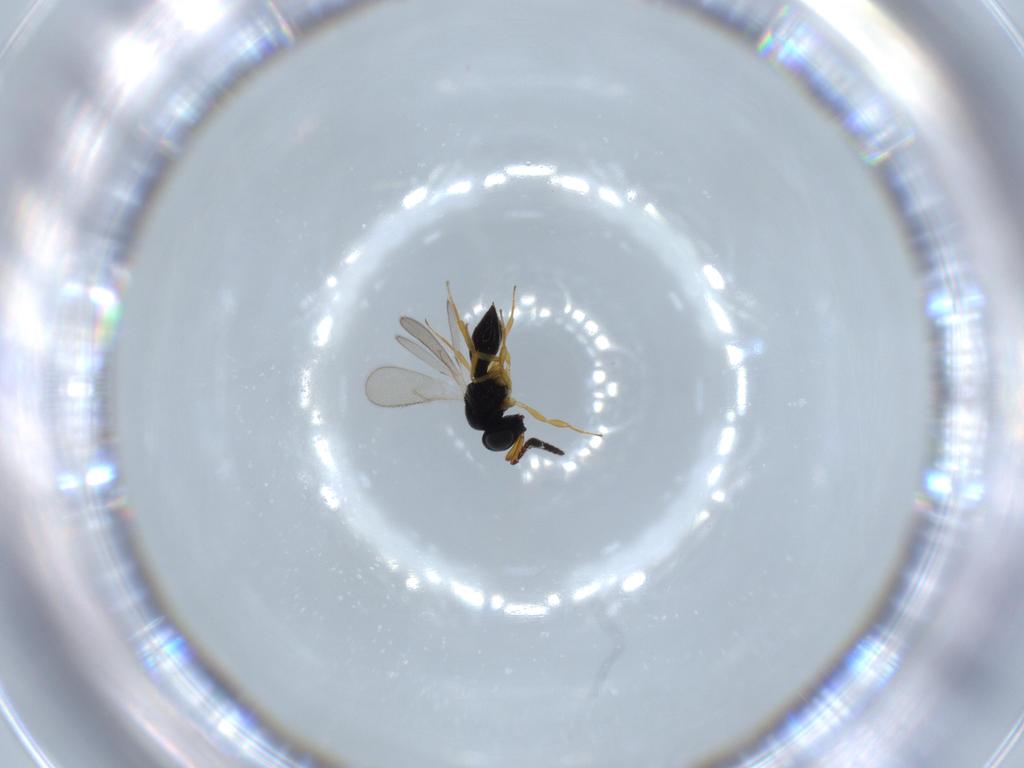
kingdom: Animalia
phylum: Arthropoda
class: Insecta
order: Hymenoptera
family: Scelionidae
